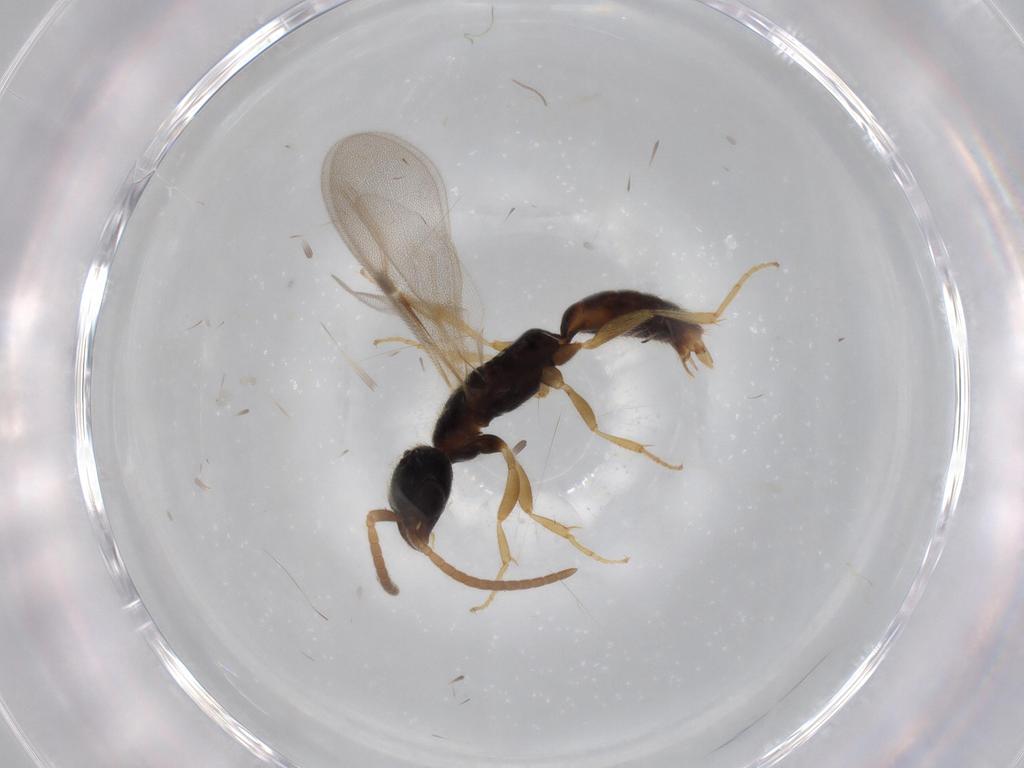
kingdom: Animalia
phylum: Arthropoda
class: Insecta
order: Hymenoptera
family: Bethylidae
